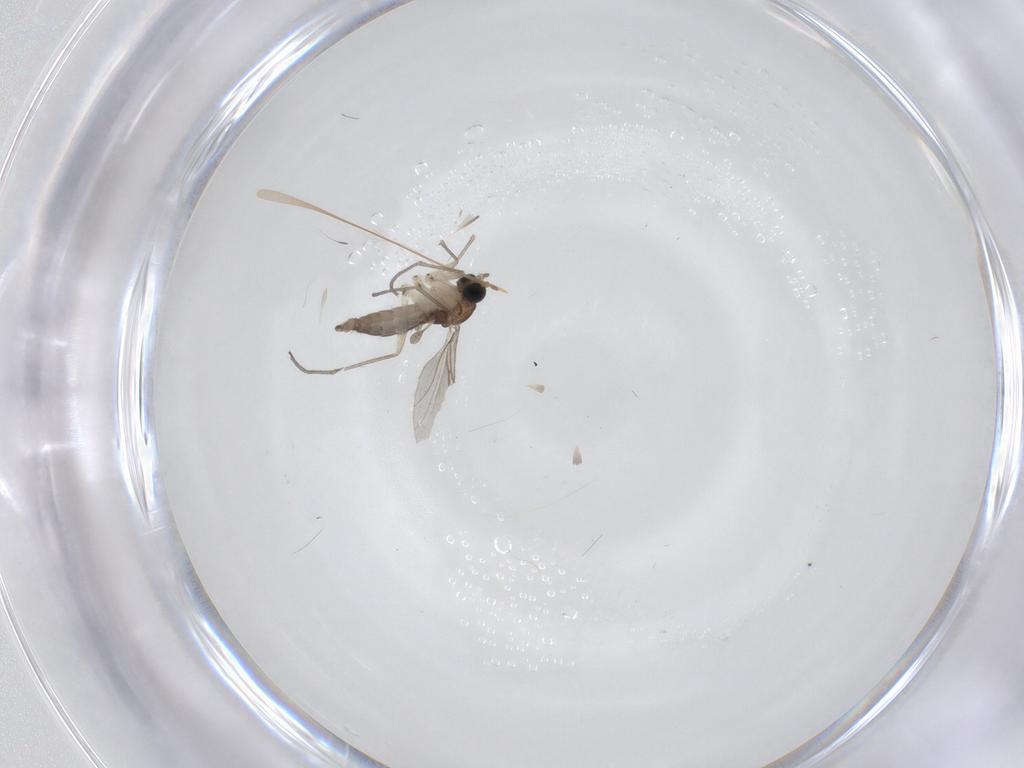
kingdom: Animalia
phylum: Arthropoda
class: Insecta
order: Diptera
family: Sciaridae
